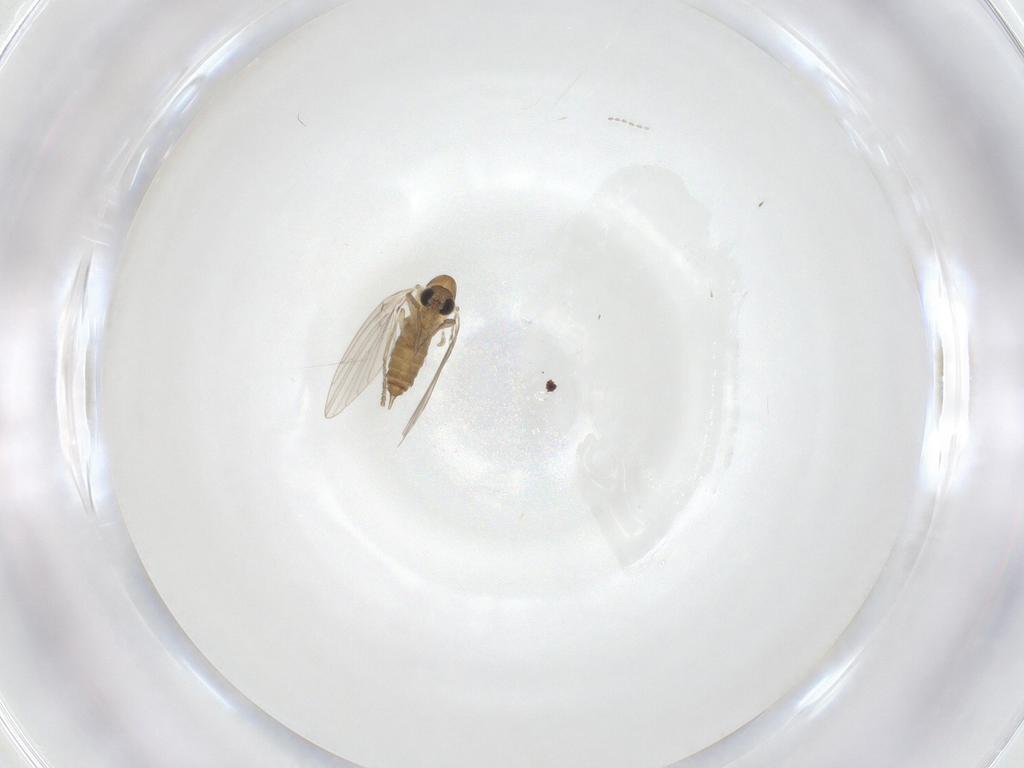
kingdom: Animalia
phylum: Arthropoda
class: Insecta
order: Diptera
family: Psychodidae
